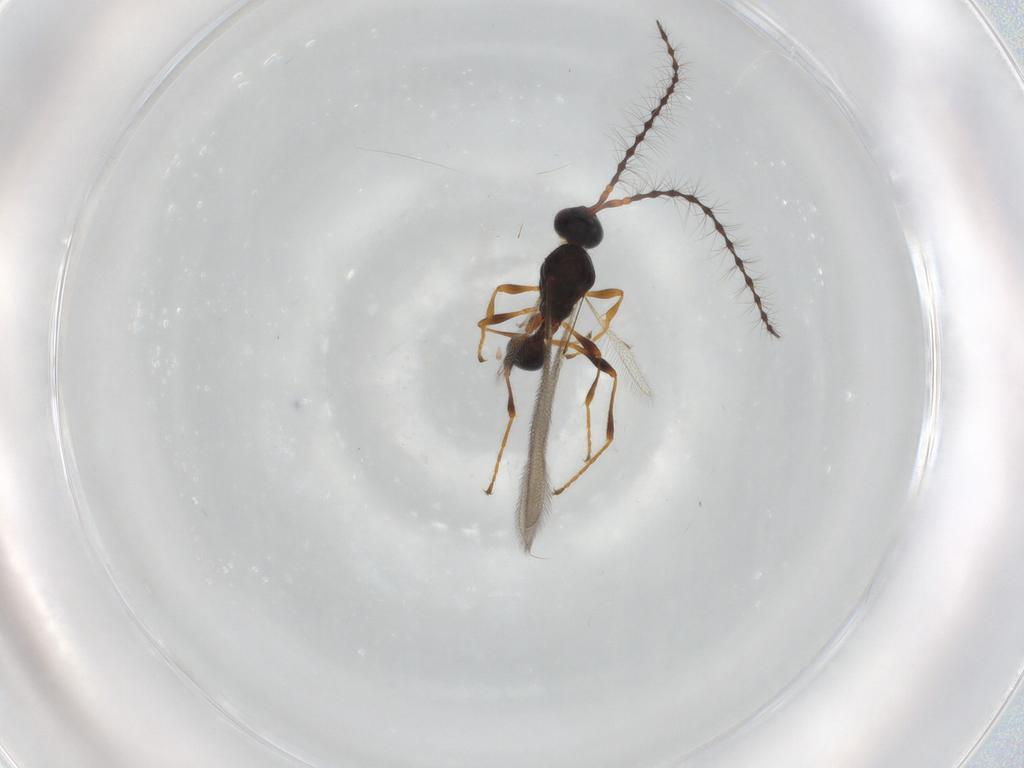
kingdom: Animalia
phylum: Arthropoda
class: Insecta
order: Hymenoptera
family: Diapriidae
